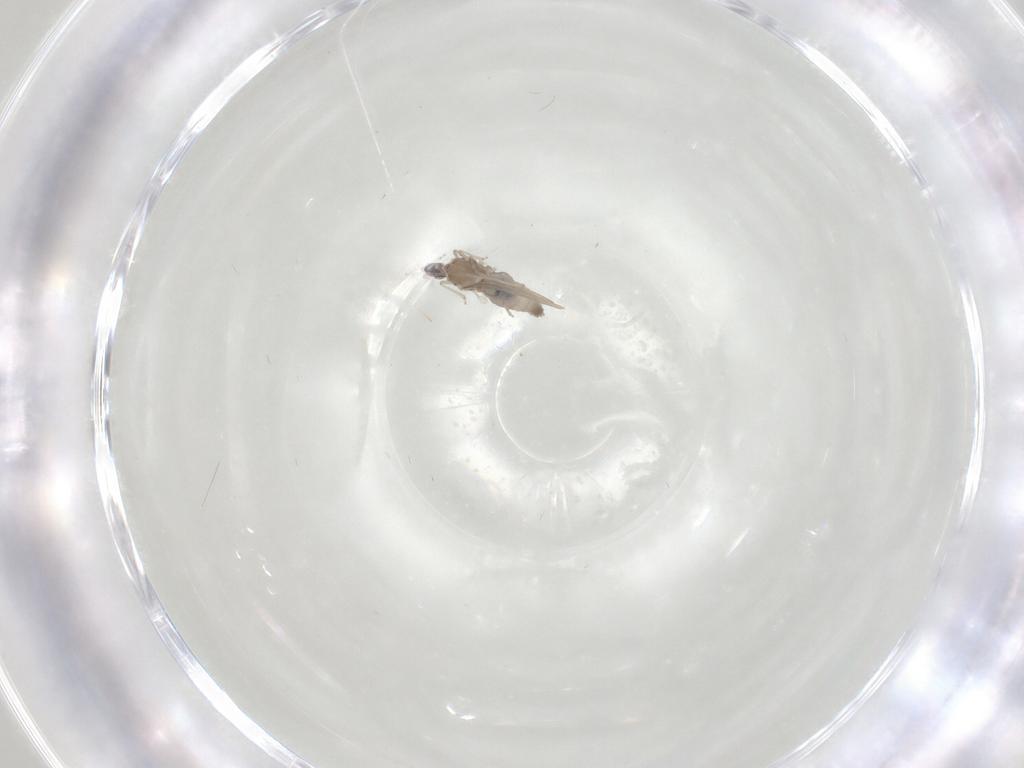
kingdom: Animalia
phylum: Arthropoda
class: Insecta
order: Diptera
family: Cecidomyiidae
